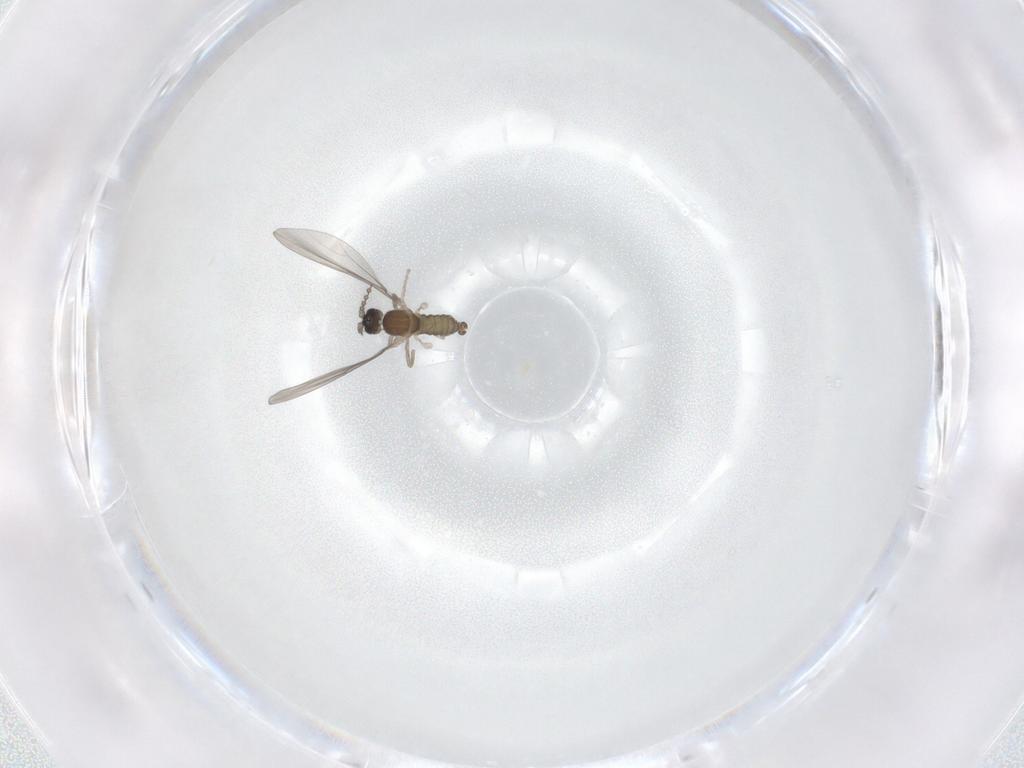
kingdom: Animalia
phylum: Arthropoda
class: Insecta
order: Diptera
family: Cecidomyiidae
